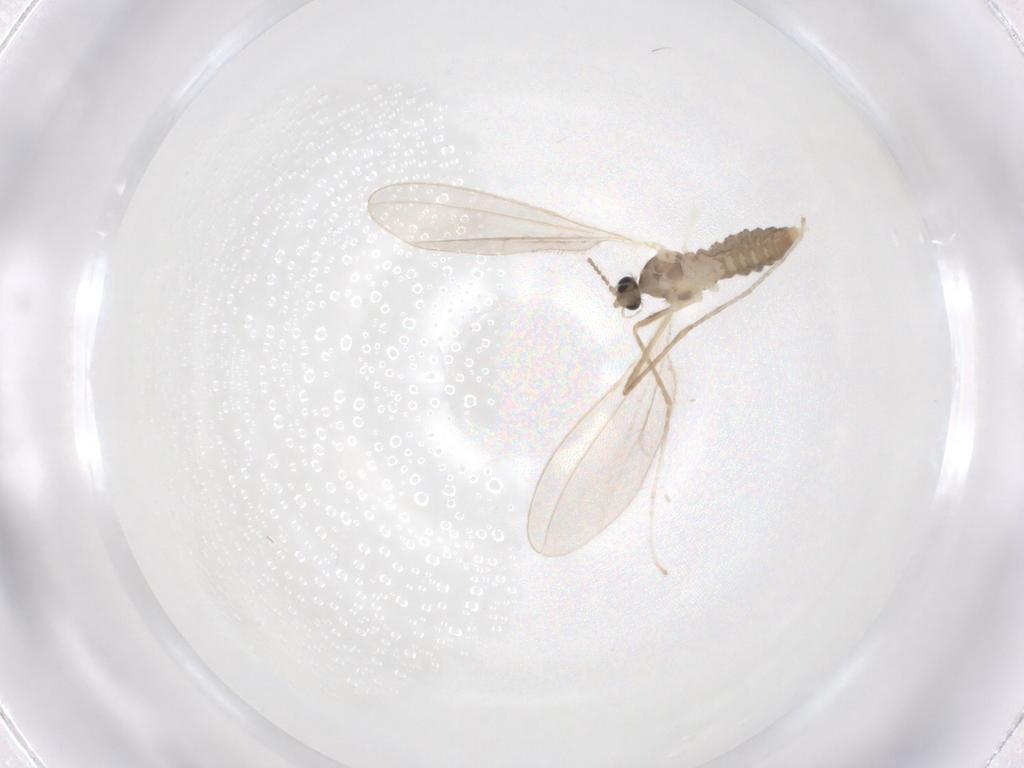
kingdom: Animalia
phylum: Arthropoda
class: Insecta
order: Diptera
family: Cecidomyiidae
